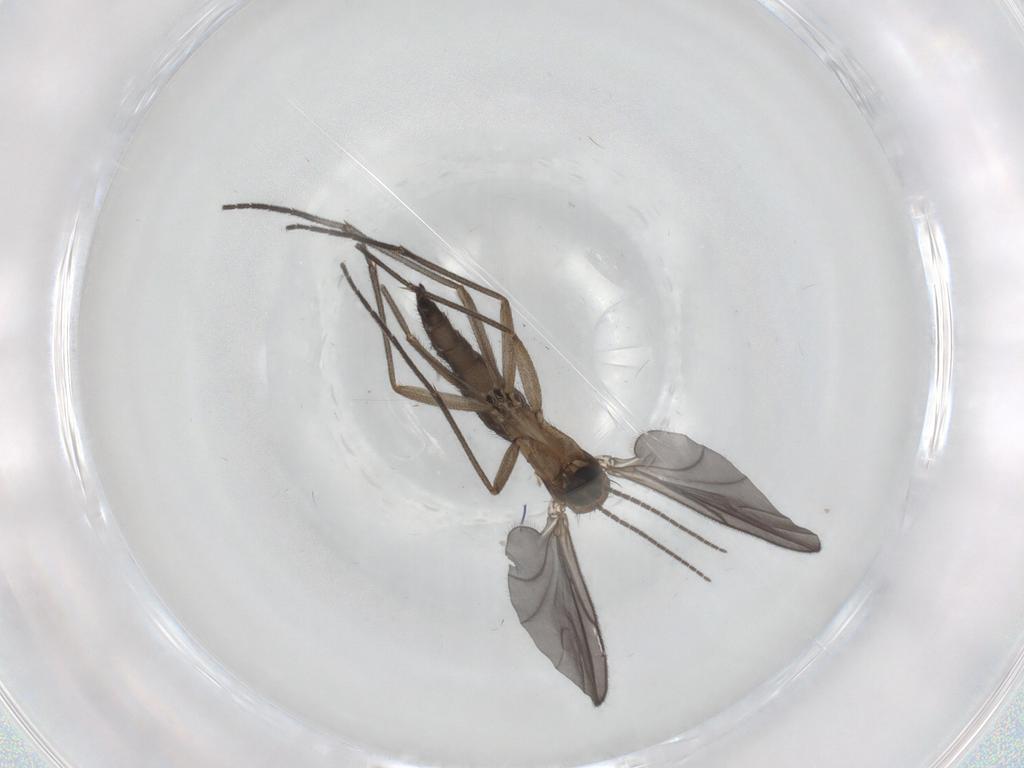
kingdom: Animalia
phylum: Arthropoda
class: Insecta
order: Diptera
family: Sciaridae
